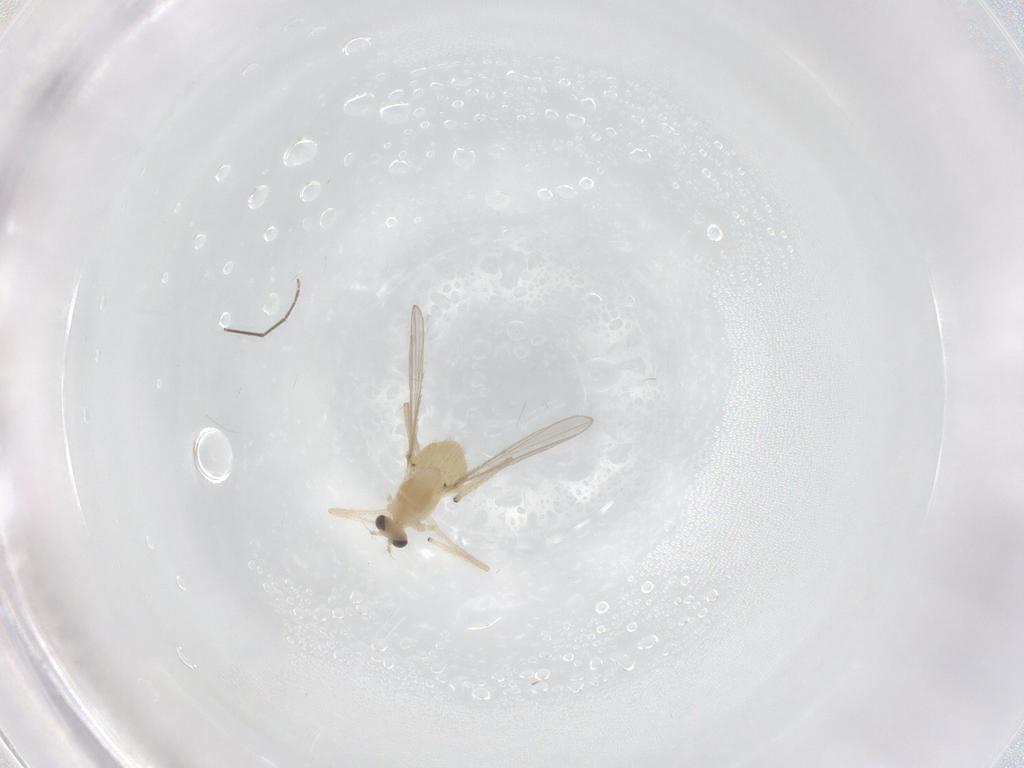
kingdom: Animalia
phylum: Arthropoda
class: Insecta
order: Diptera
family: Chironomidae
